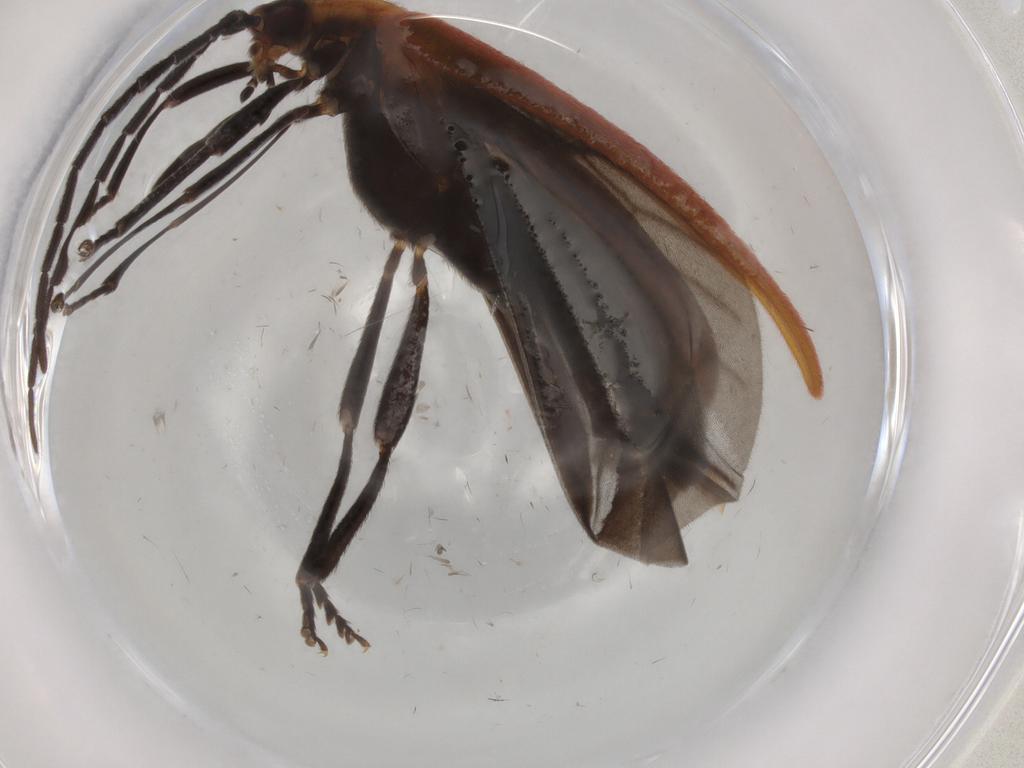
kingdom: Animalia
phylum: Arthropoda
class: Insecta
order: Coleoptera
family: Lycidae
